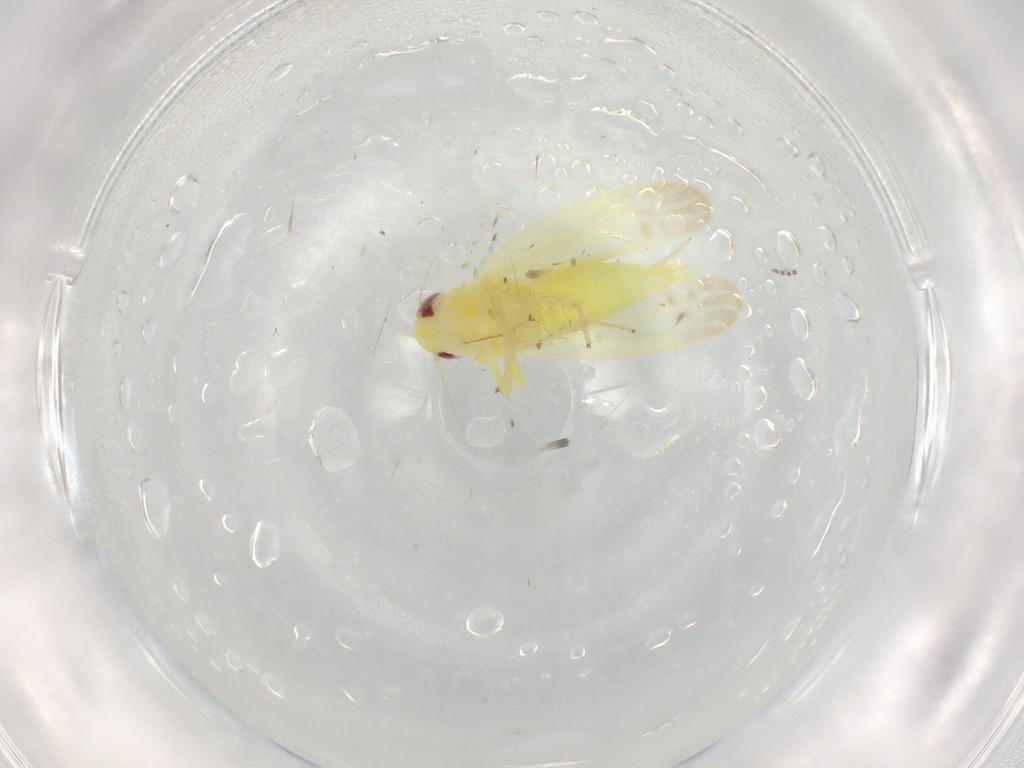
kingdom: Animalia
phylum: Arthropoda
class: Insecta
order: Hemiptera
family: Cicadellidae
